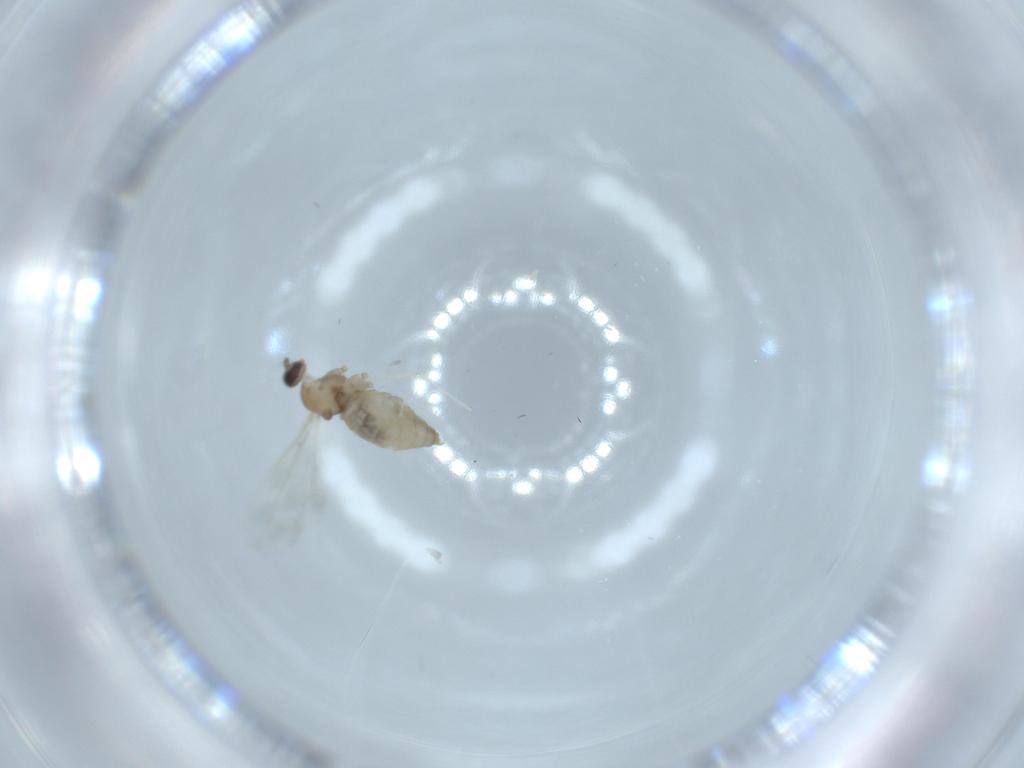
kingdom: Animalia
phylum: Arthropoda
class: Insecta
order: Diptera
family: Cecidomyiidae
